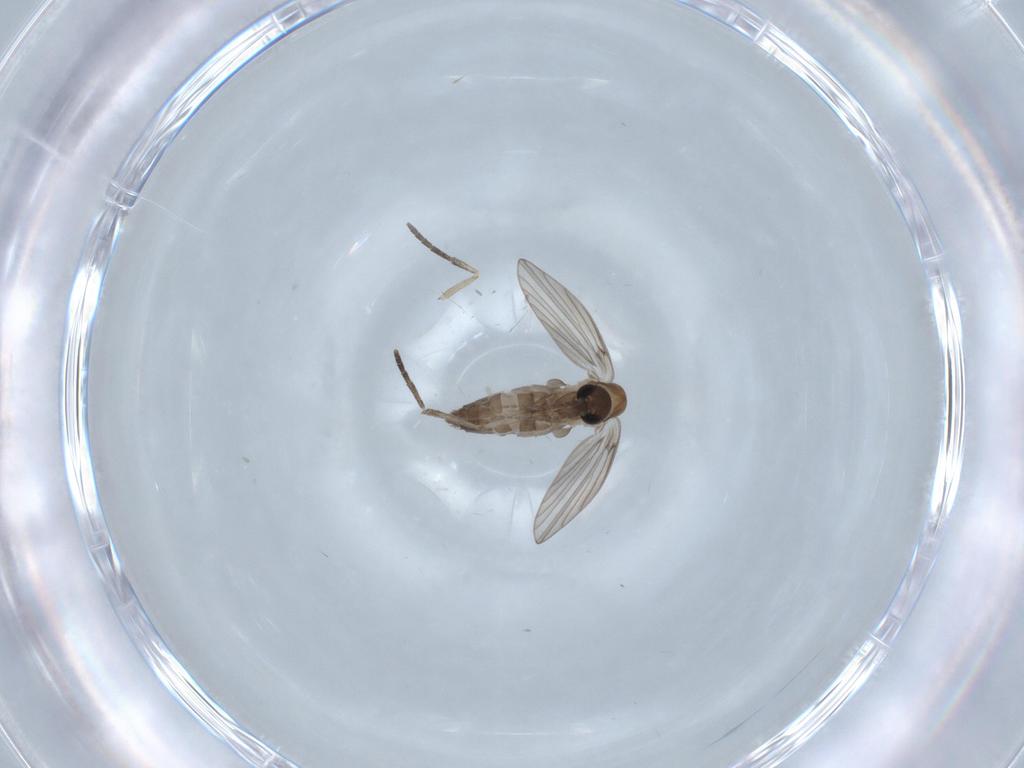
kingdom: Animalia
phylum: Arthropoda
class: Insecta
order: Diptera
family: Psychodidae
